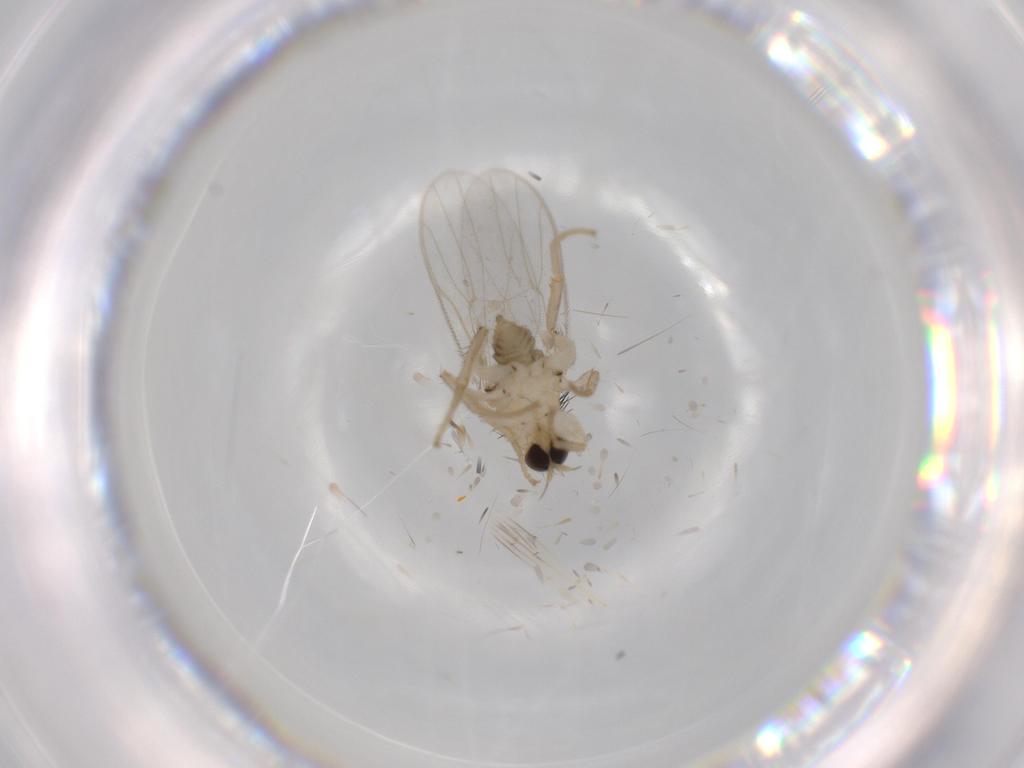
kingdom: Animalia
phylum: Arthropoda
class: Insecta
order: Diptera
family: Hybotidae
